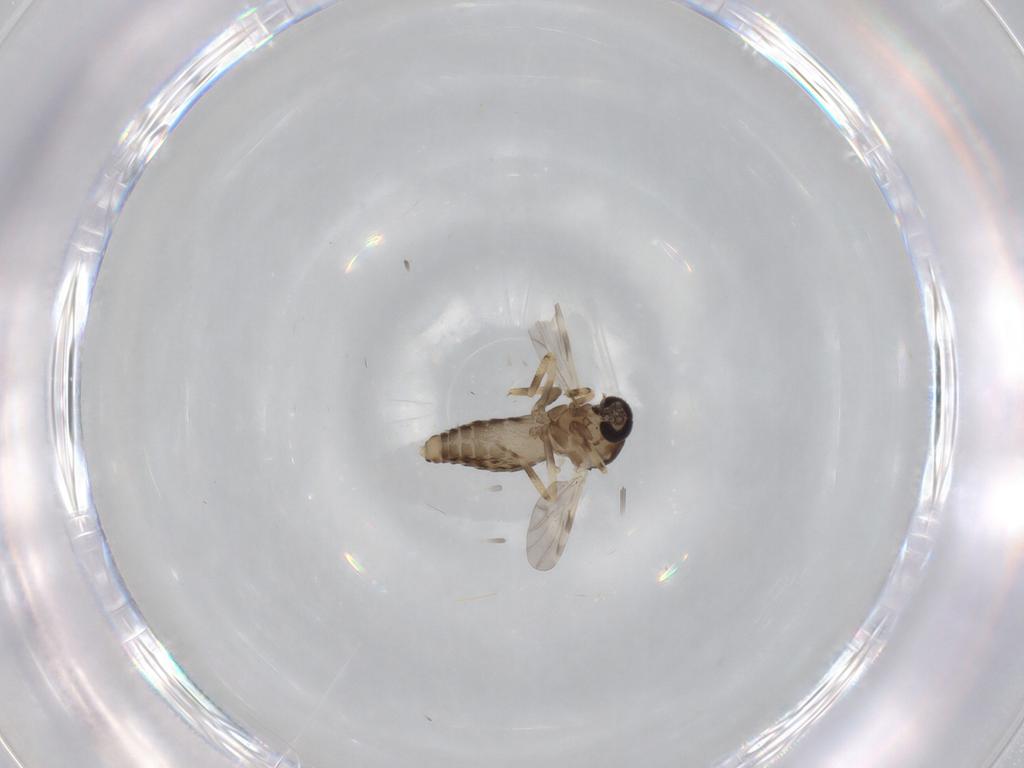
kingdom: Animalia
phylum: Arthropoda
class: Insecta
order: Diptera
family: Ceratopogonidae
